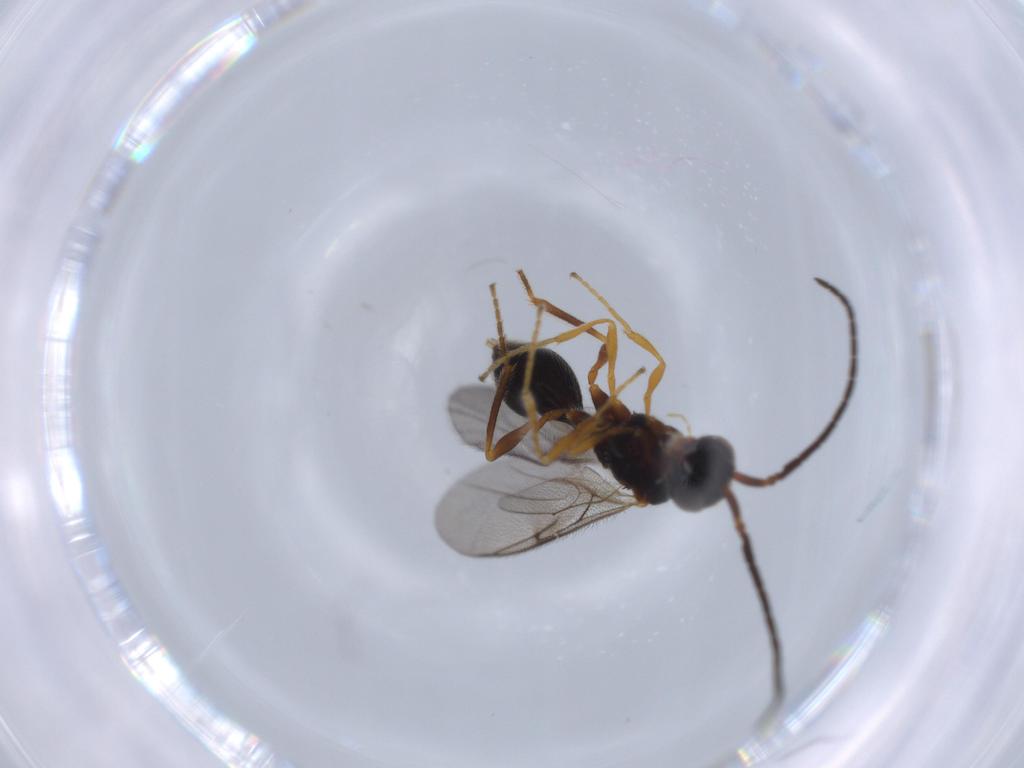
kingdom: Animalia
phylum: Arthropoda
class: Insecta
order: Hymenoptera
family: Diapriidae
